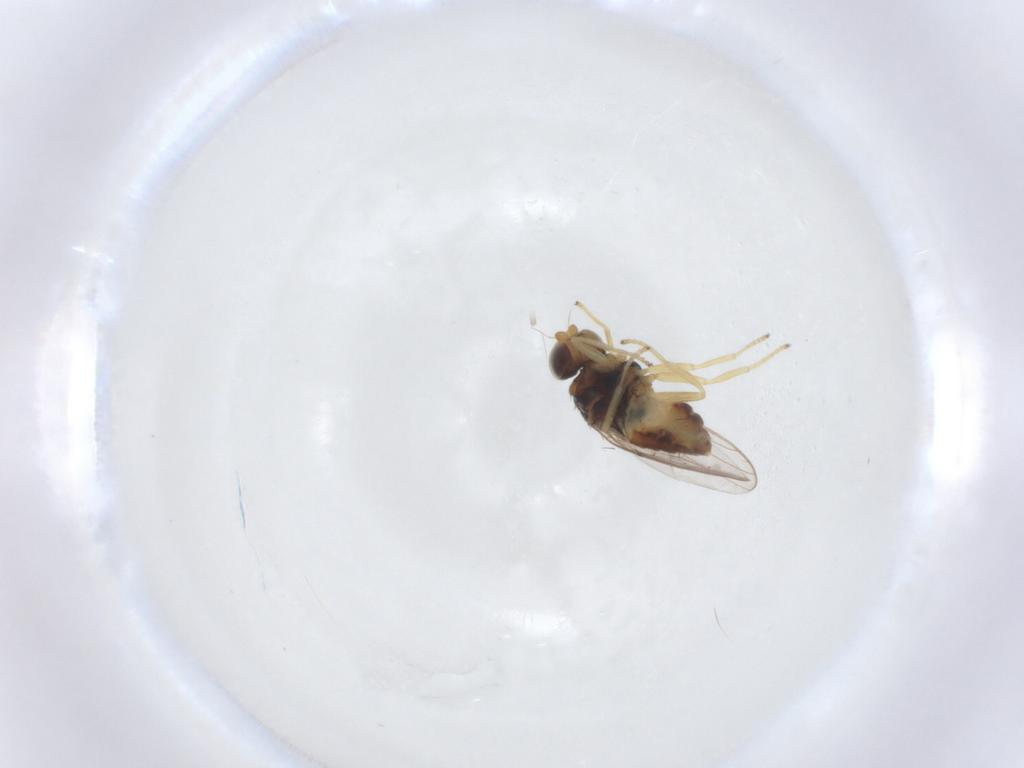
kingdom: Animalia
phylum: Arthropoda
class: Insecta
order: Diptera
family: Chloropidae
